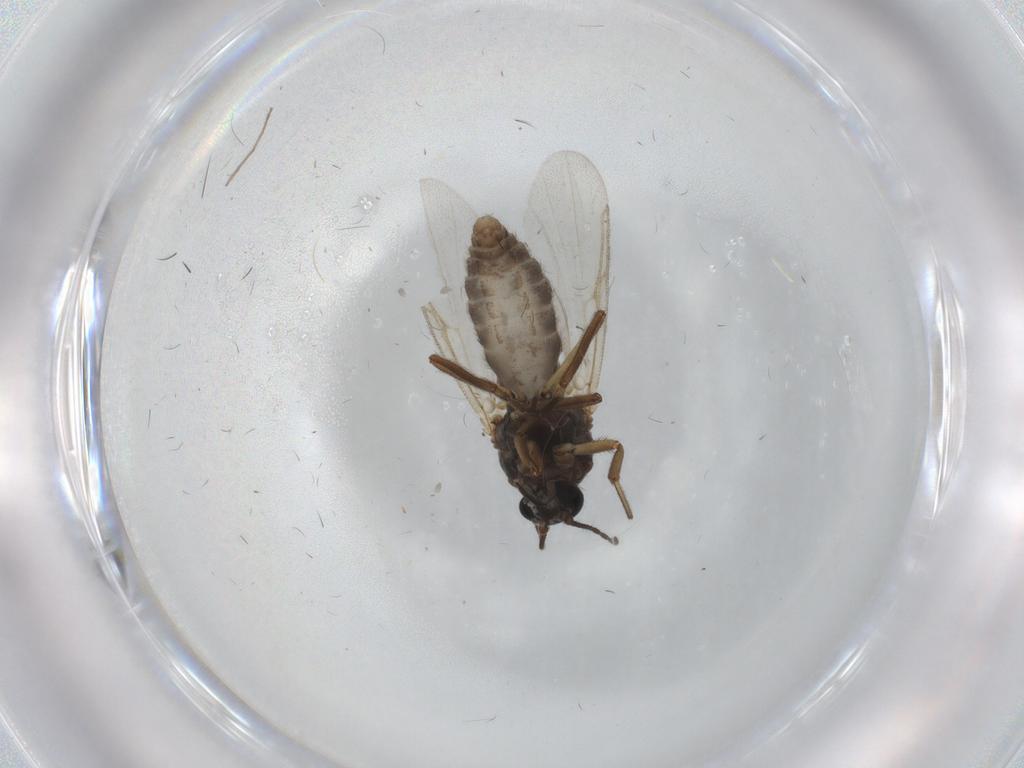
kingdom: Animalia
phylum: Arthropoda
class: Insecta
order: Diptera
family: Ceratopogonidae
